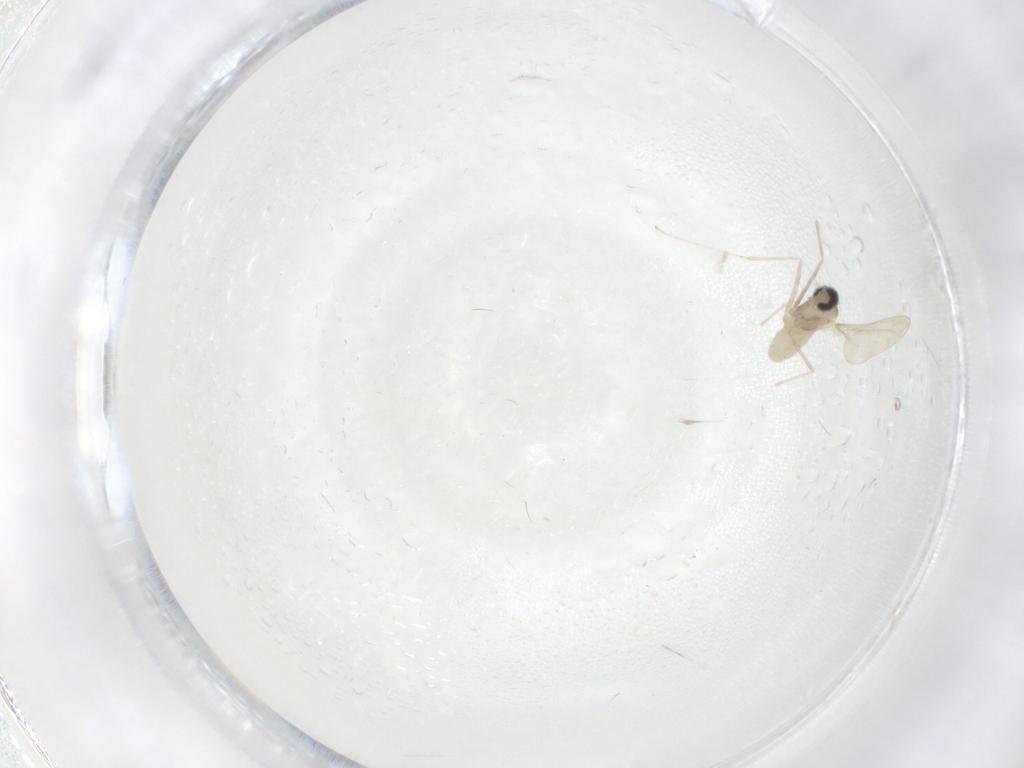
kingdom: Animalia
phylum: Arthropoda
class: Insecta
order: Diptera
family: Cecidomyiidae
